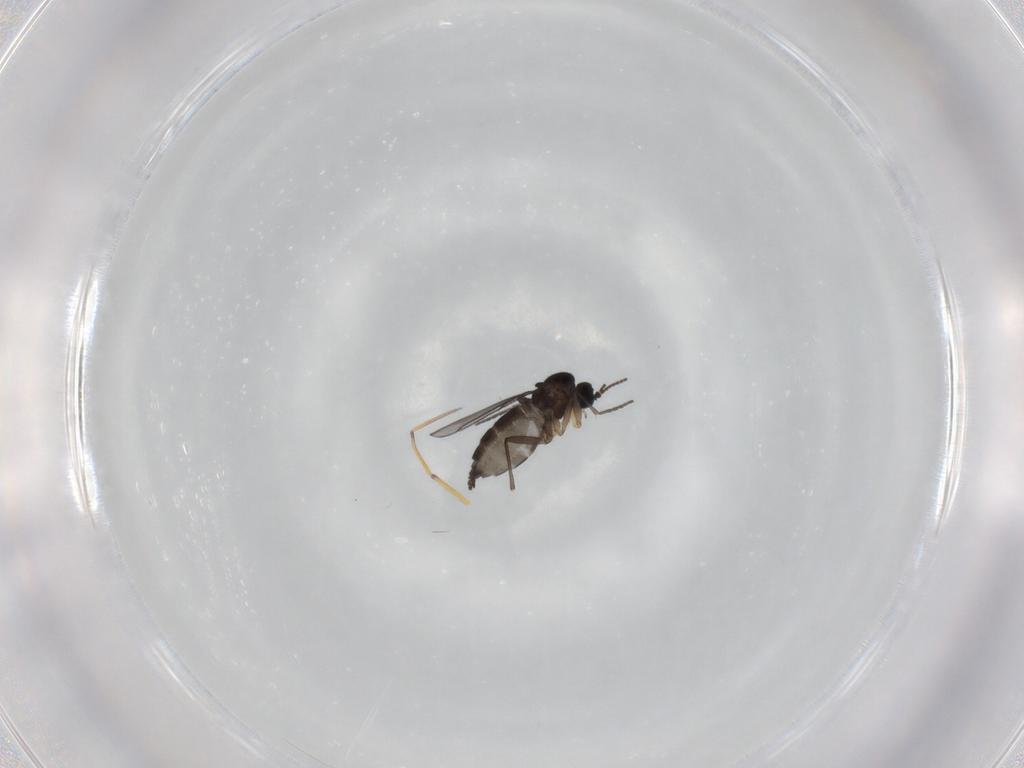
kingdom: Animalia
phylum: Arthropoda
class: Insecta
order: Diptera
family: Sciaridae
